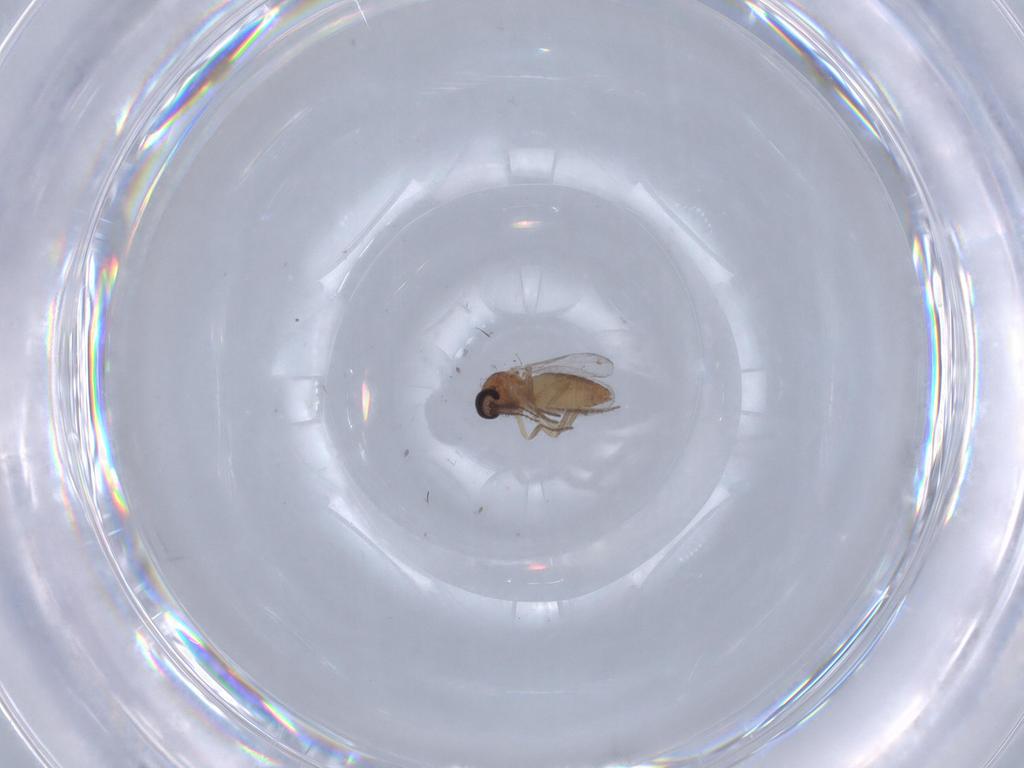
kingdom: Animalia
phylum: Arthropoda
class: Insecta
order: Diptera
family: Ceratopogonidae
